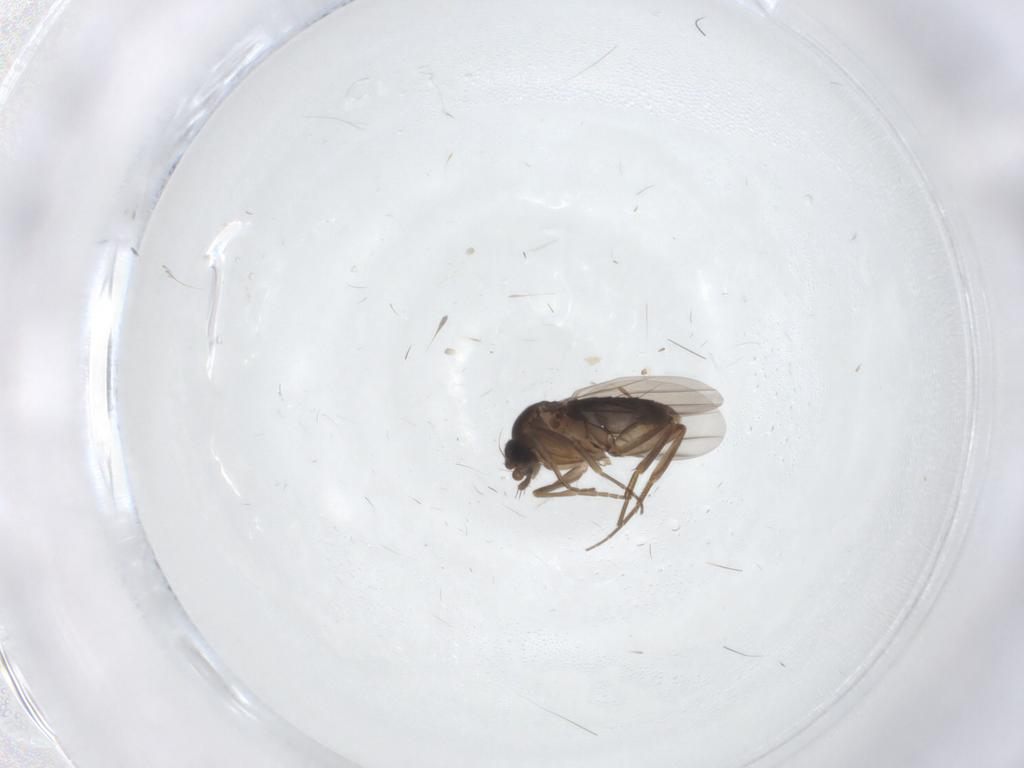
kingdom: Animalia
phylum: Arthropoda
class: Insecta
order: Diptera
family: Phoridae
